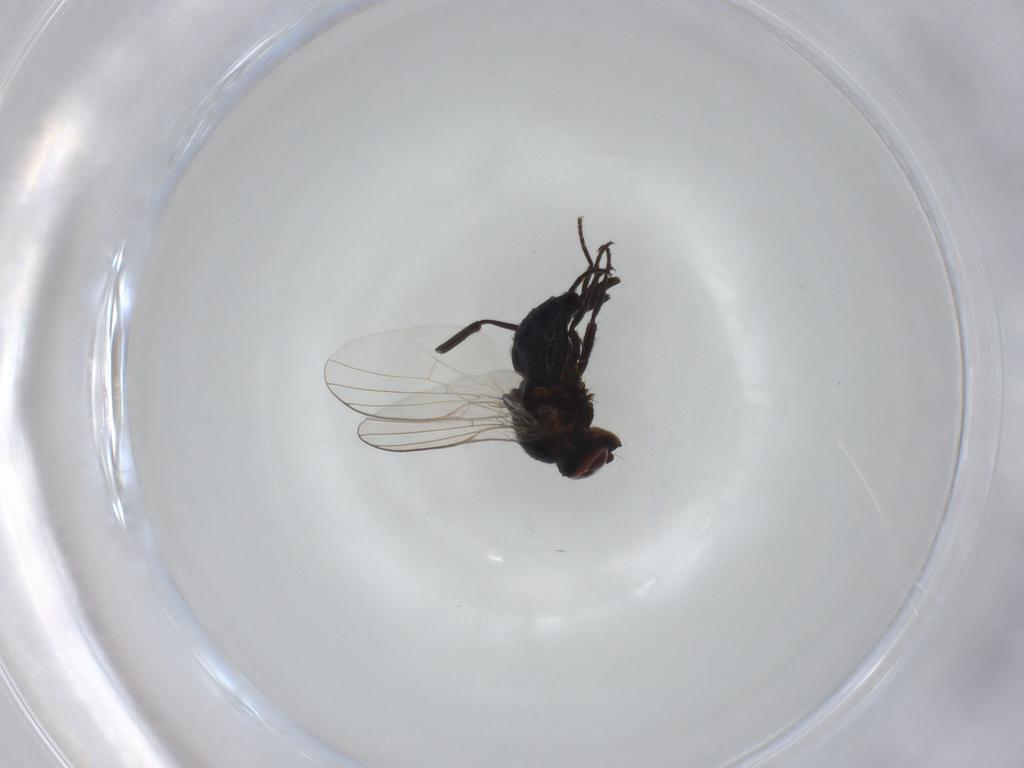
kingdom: Animalia
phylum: Arthropoda
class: Insecta
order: Diptera
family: Agromyzidae
